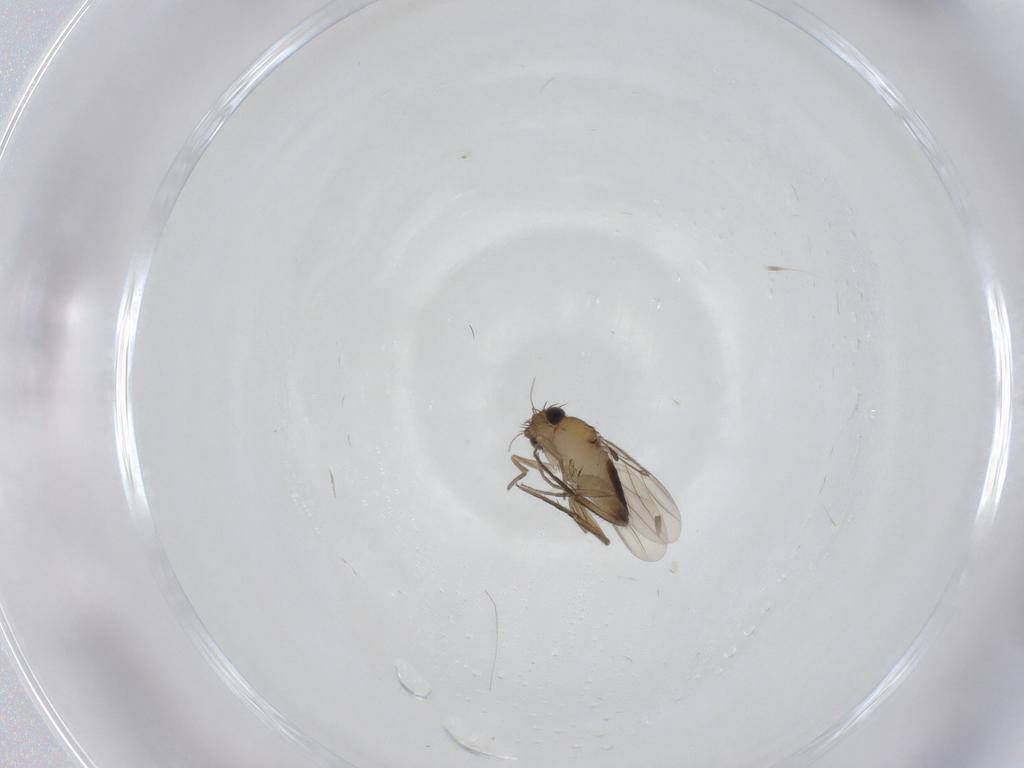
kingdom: Animalia
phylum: Arthropoda
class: Insecta
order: Diptera
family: Phoridae
